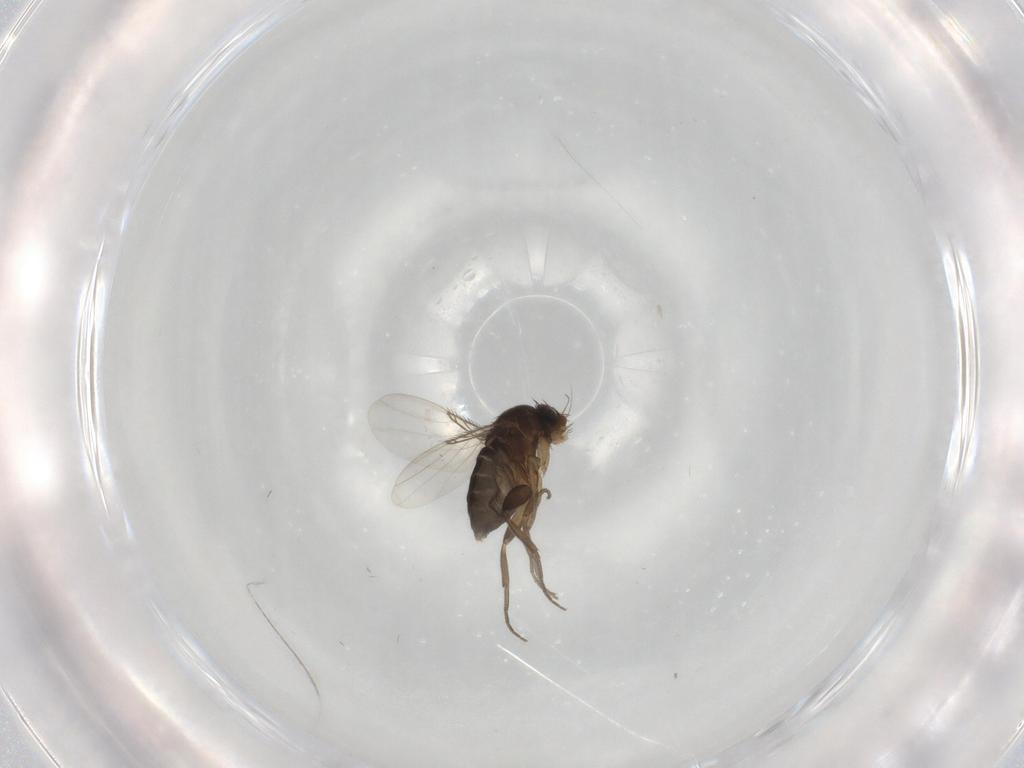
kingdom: Animalia
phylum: Arthropoda
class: Insecta
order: Diptera
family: Phoridae
